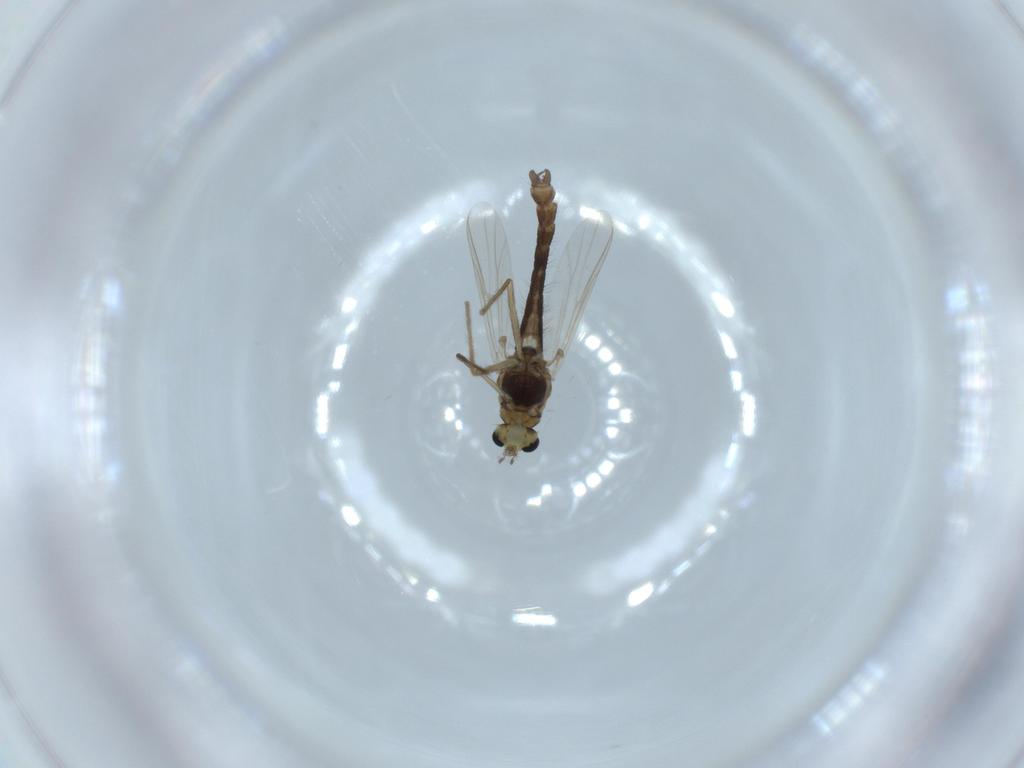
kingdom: Animalia
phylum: Arthropoda
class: Insecta
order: Diptera
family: Chironomidae
